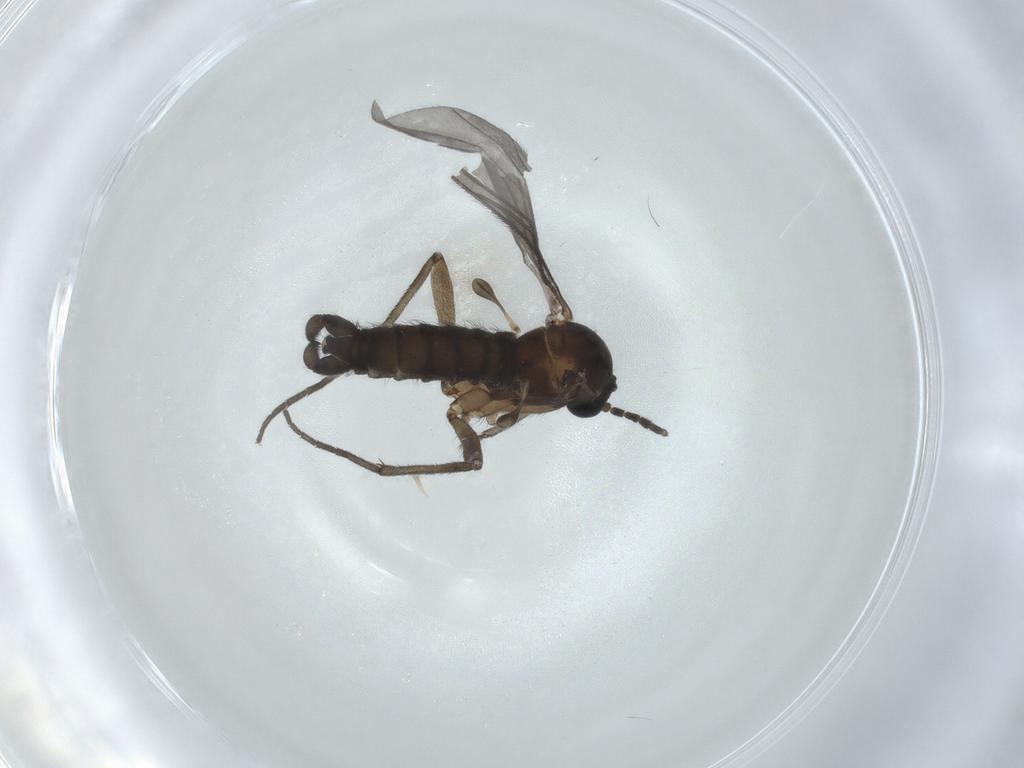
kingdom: Animalia
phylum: Arthropoda
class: Insecta
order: Diptera
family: Sciaridae
